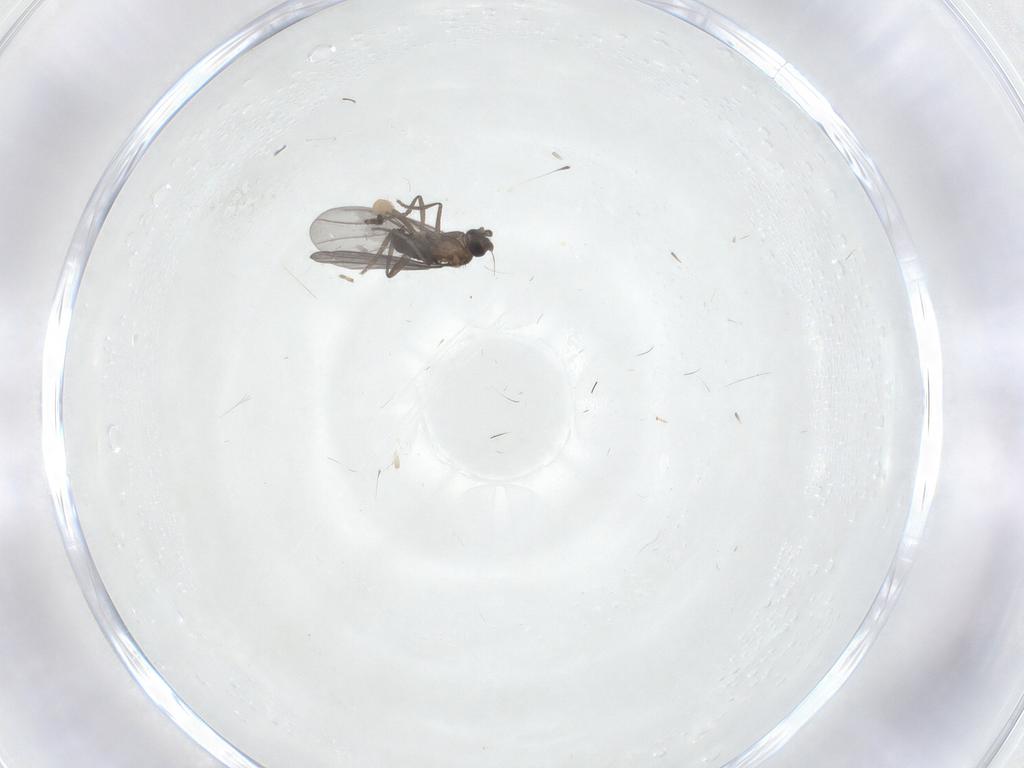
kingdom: Animalia
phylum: Arthropoda
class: Insecta
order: Diptera
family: Phoridae
